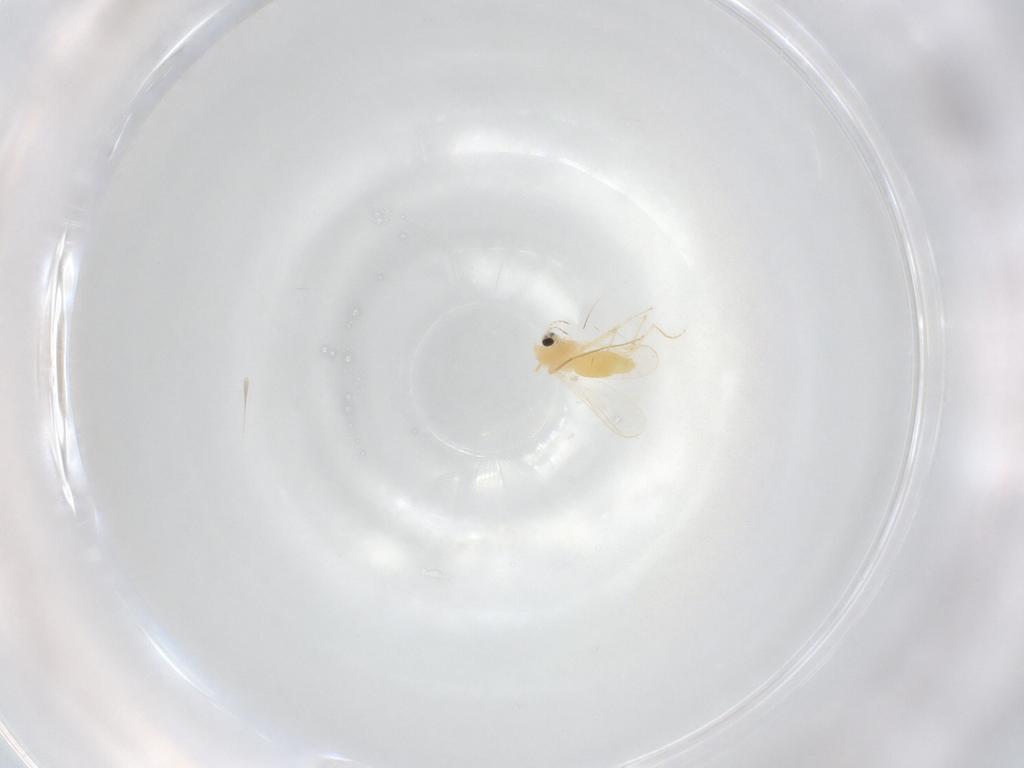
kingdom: Animalia
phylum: Arthropoda
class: Insecta
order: Diptera
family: Chironomidae
